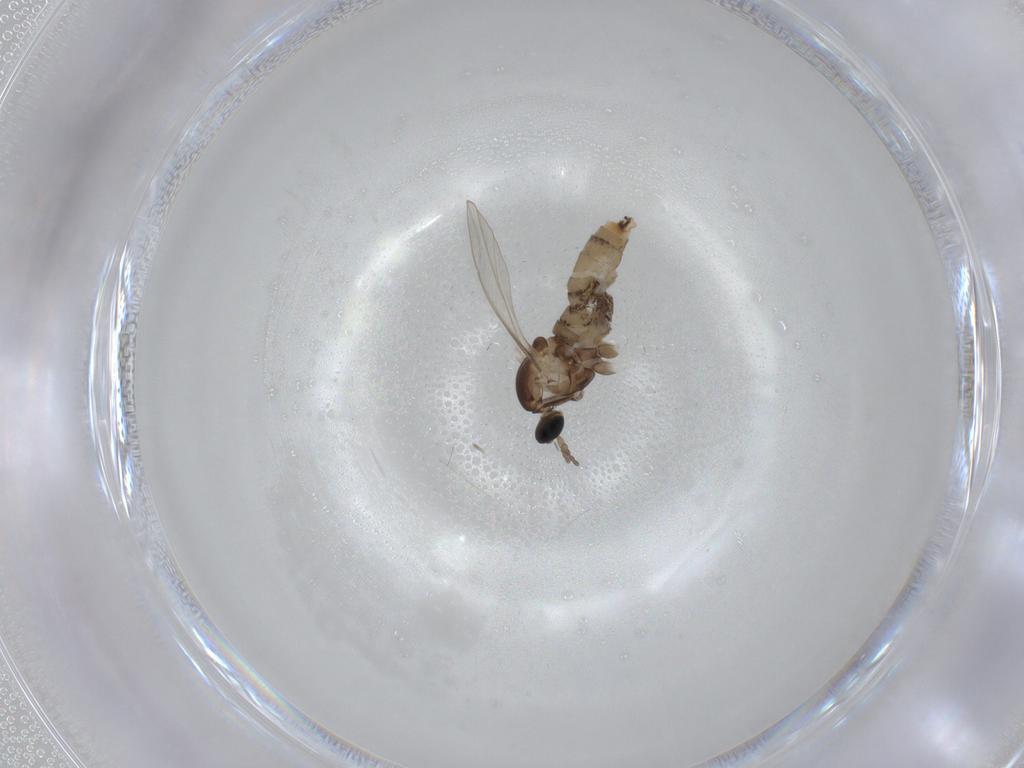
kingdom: Animalia
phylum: Arthropoda
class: Insecta
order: Diptera
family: Cecidomyiidae
